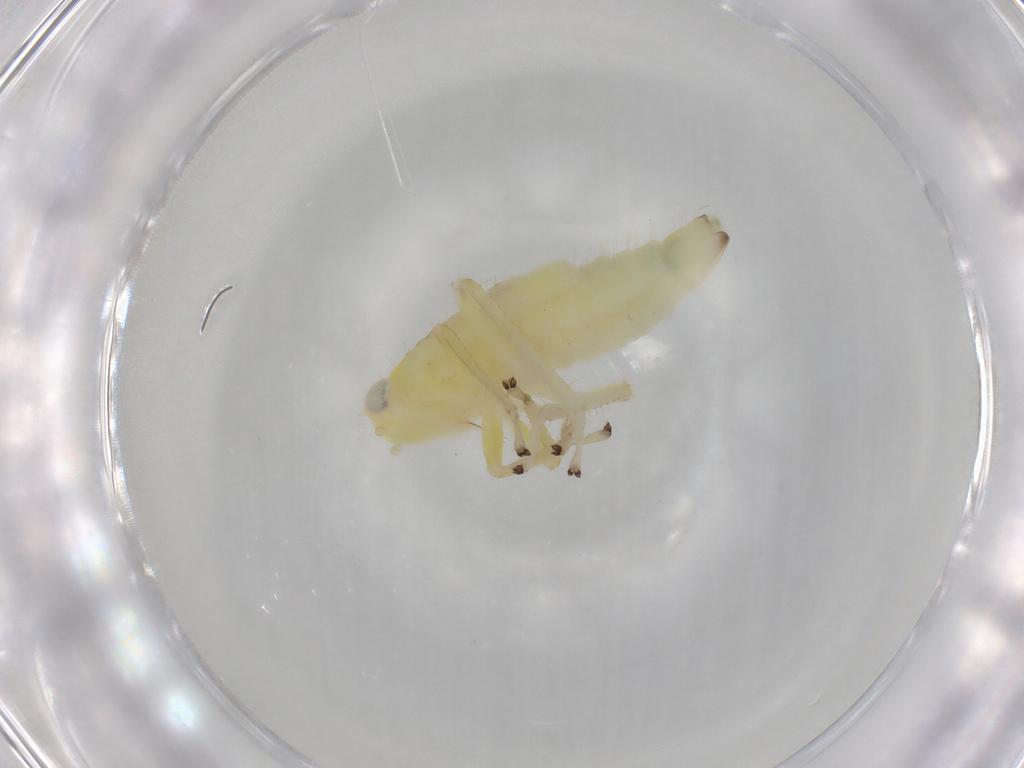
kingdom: Animalia
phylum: Arthropoda
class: Insecta
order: Hemiptera
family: Cicadellidae
